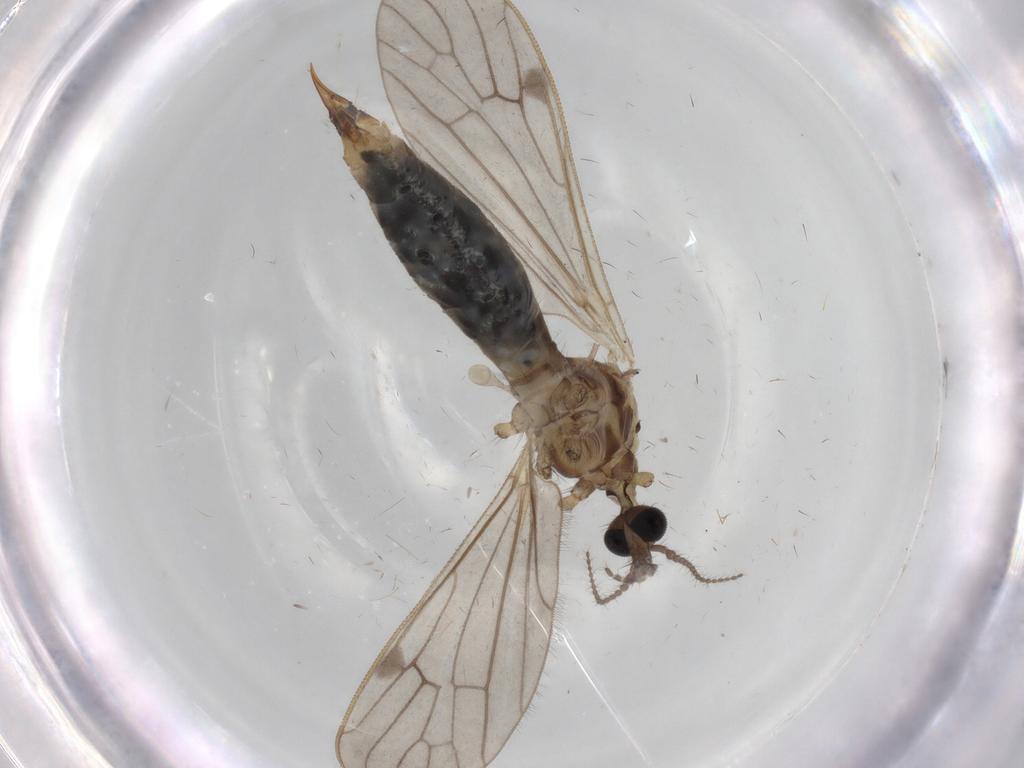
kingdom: Animalia
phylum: Arthropoda
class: Insecta
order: Diptera
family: Limoniidae
